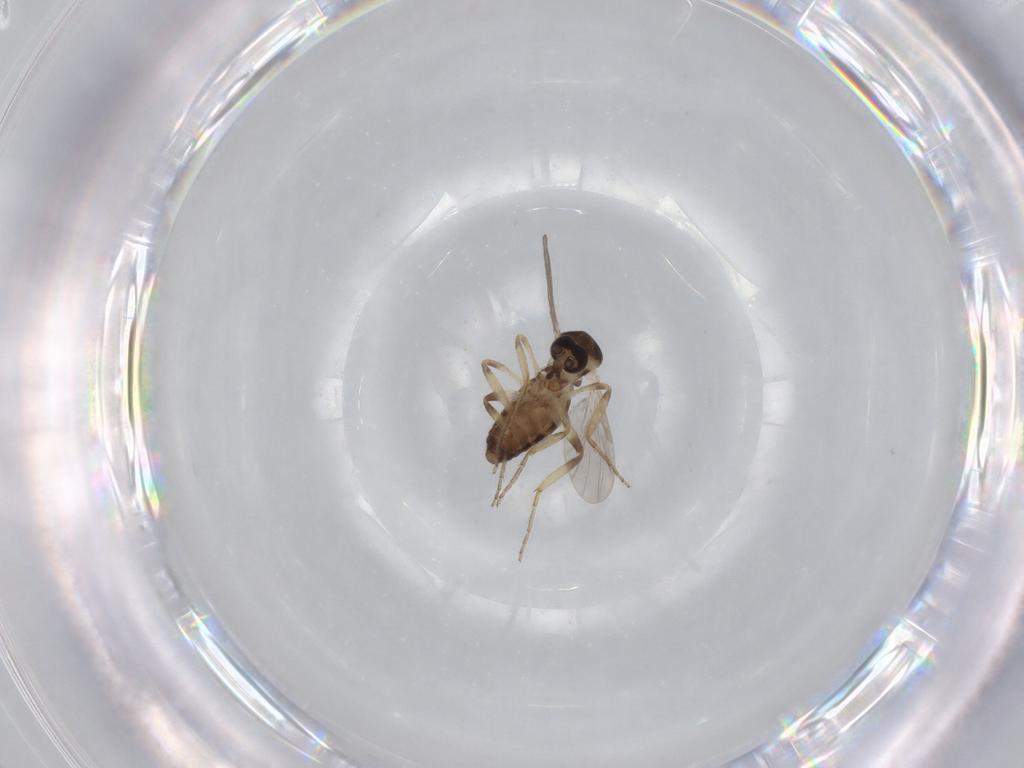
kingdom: Animalia
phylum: Arthropoda
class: Insecta
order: Diptera
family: Ceratopogonidae
